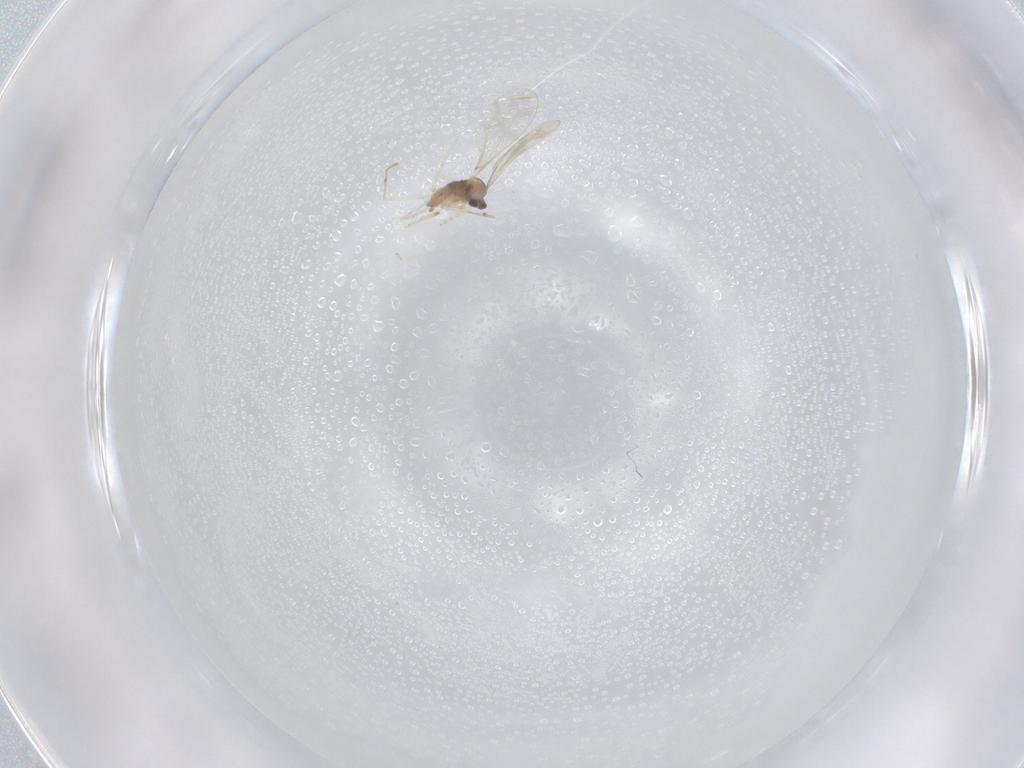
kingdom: Animalia
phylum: Arthropoda
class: Insecta
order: Diptera
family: Cecidomyiidae
